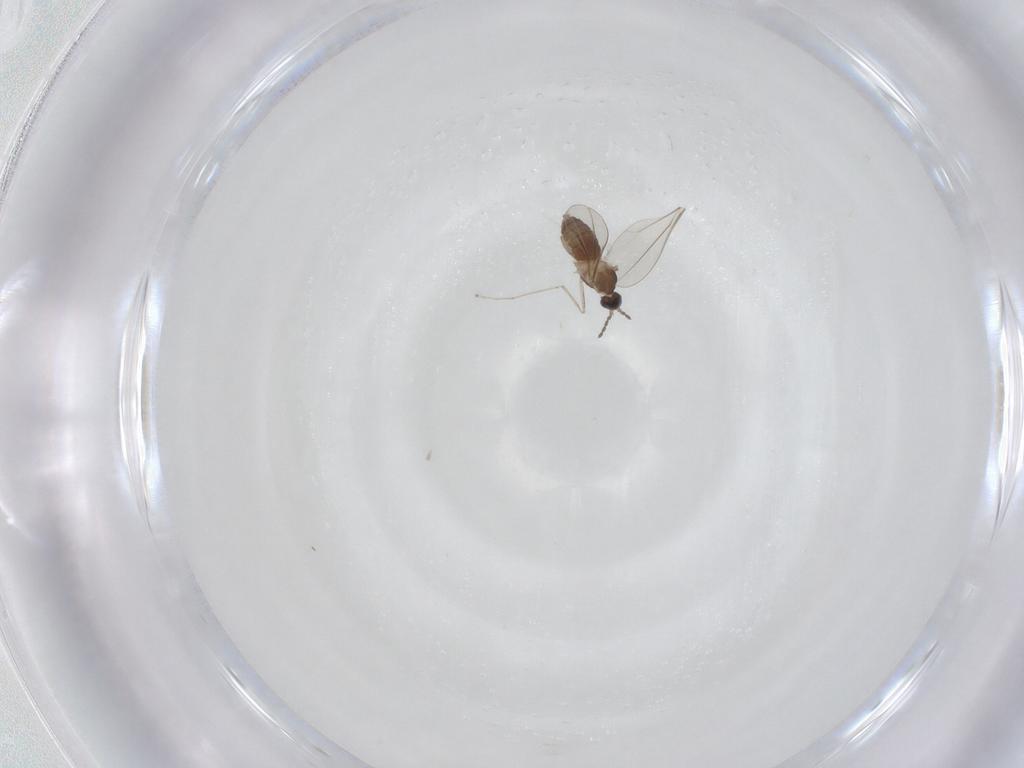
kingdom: Animalia
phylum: Arthropoda
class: Insecta
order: Diptera
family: Cecidomyiidae
